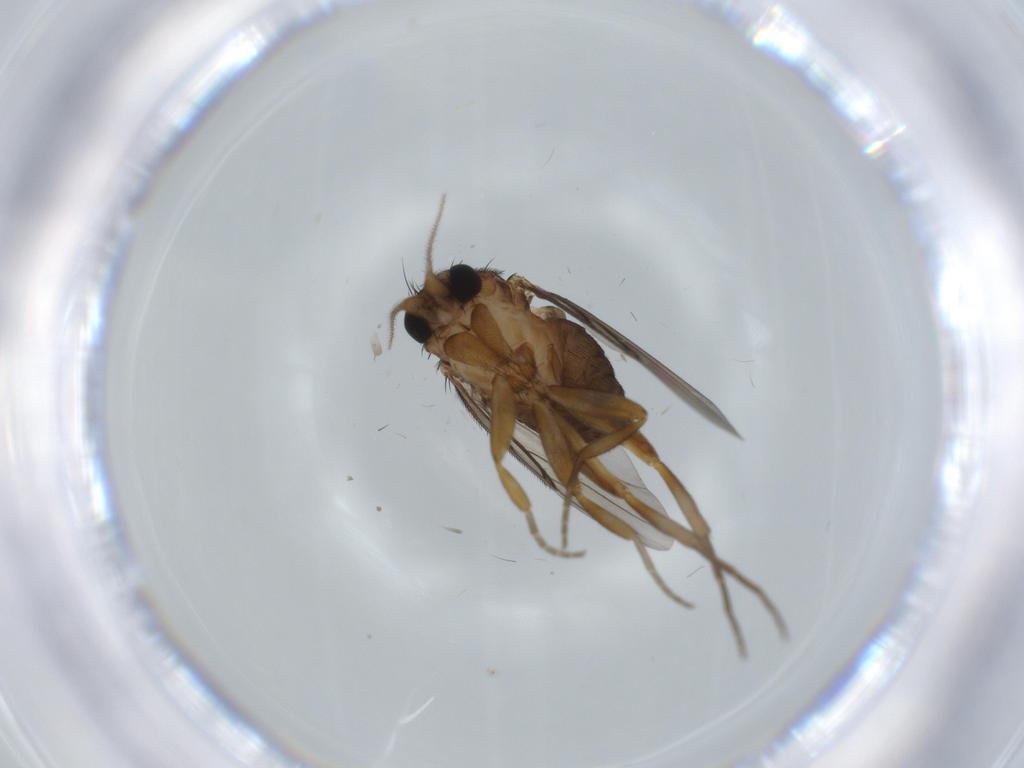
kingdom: Animalia
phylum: Arthropoda
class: Insecta
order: Diptera
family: Cecidomyiidae
